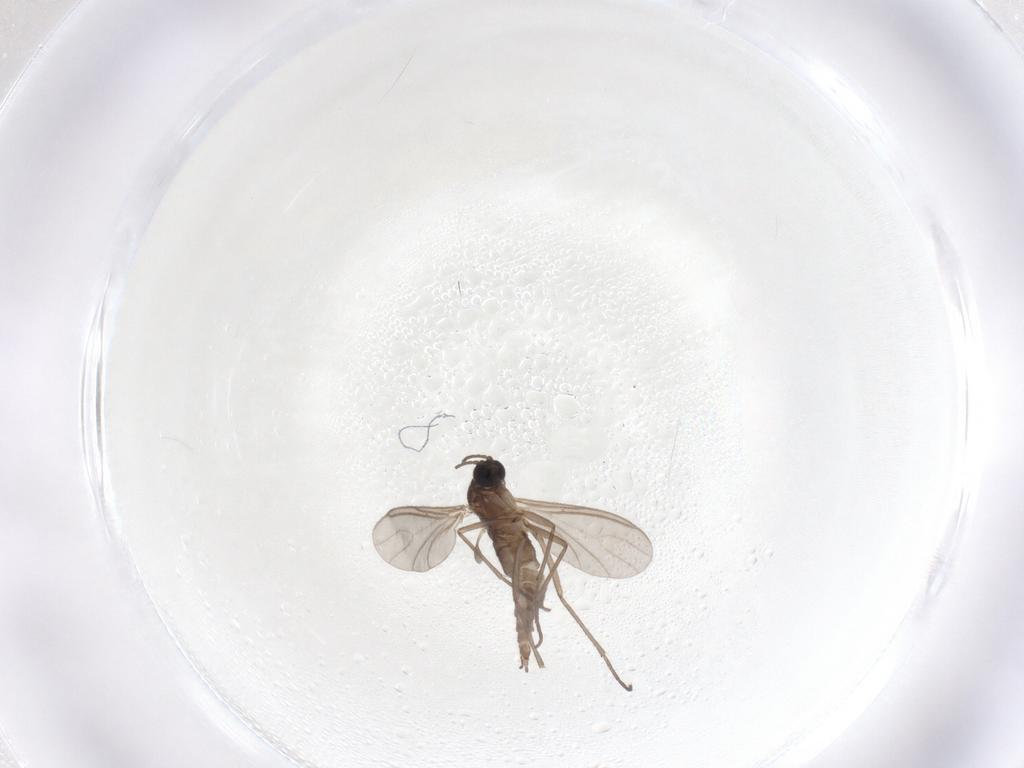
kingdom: Animalia
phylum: Arthropoda
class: Insecta
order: Diptera
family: Sciaridae
